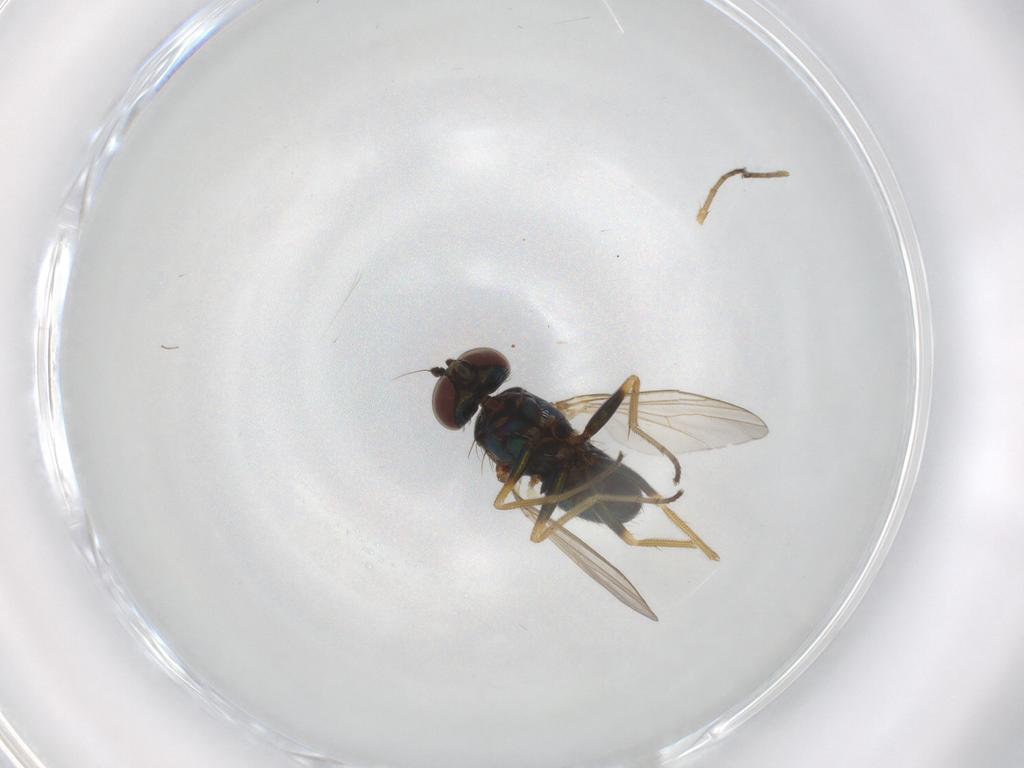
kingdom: Animalia
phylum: Arthropoda
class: Insecta
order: Diptera
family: Dolichopodidae
